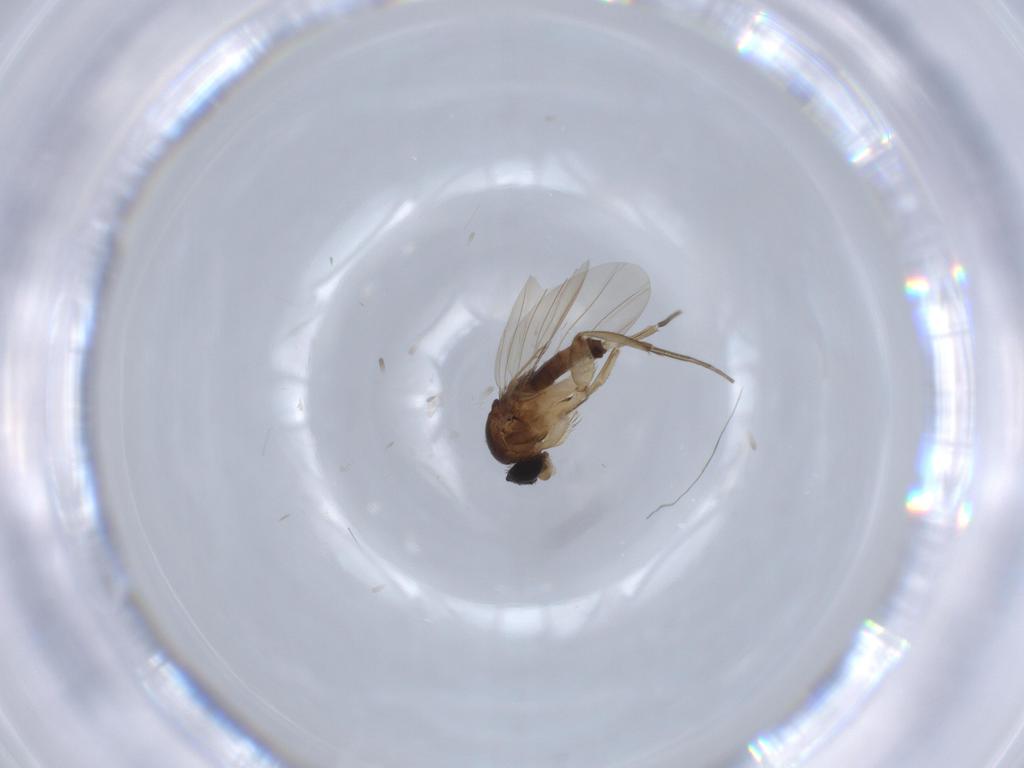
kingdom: Animalia
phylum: Arthropoda
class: Insecta
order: Diptera
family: Phoridae
